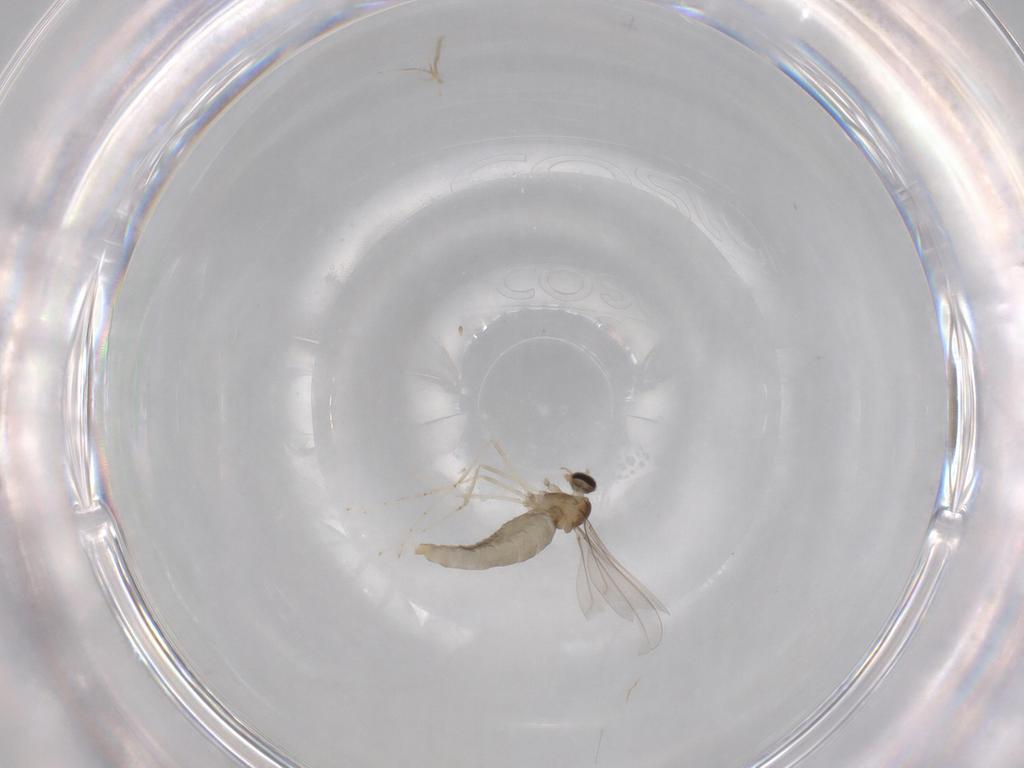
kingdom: Animalia
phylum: Arthropoda
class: Insecta
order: Diptera
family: Cecidomyiidae
